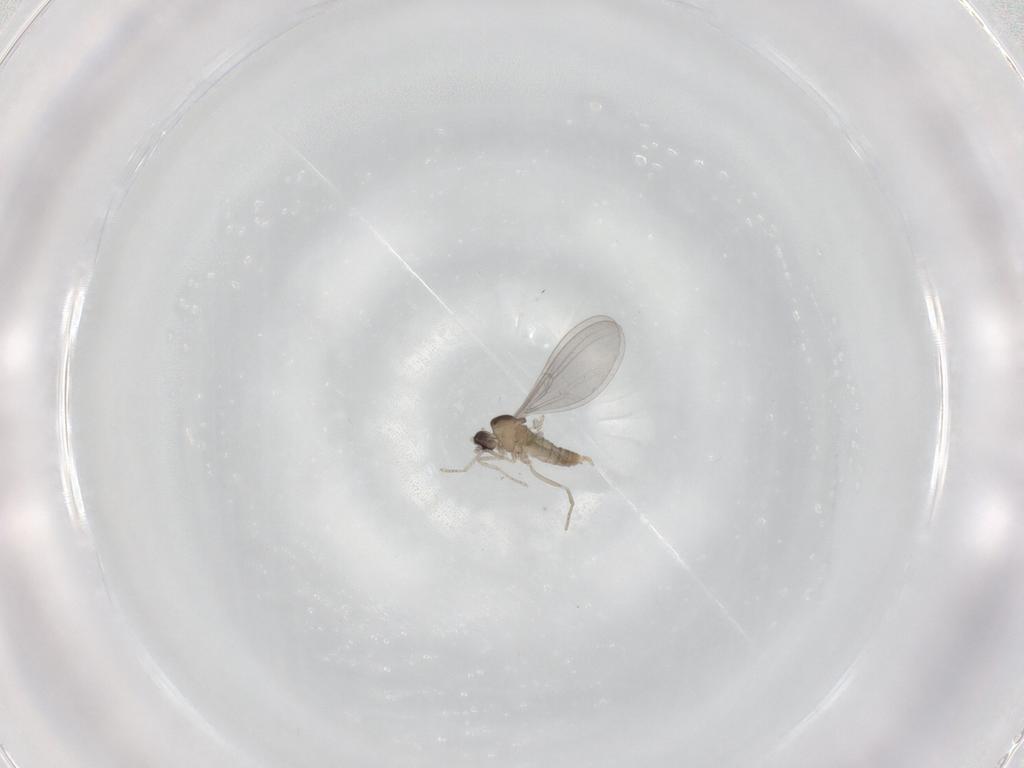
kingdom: Animalia
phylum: Arthropoda
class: Insecta
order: Diptera
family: Cecidomyiidae
